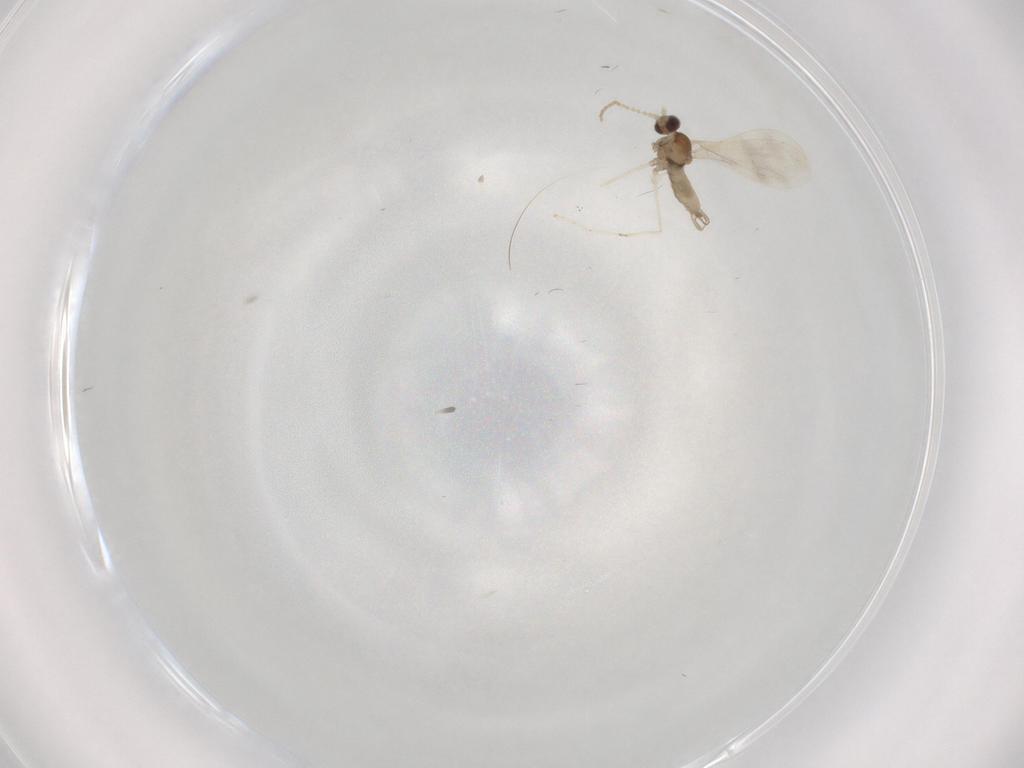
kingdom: Animalia
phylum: Arthropoda
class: Insecta
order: Diptera
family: Cecidomyiidae
